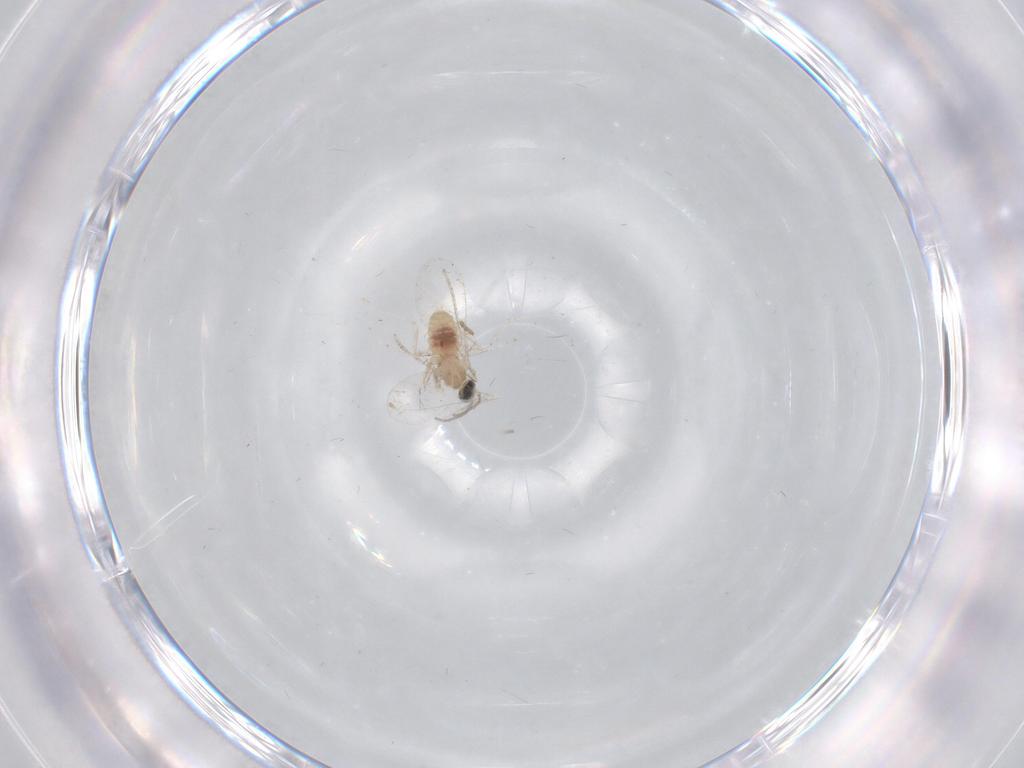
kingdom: Animalia
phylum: Arthropoda
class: Insecta
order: Diptera
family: Cecidomyiidae
